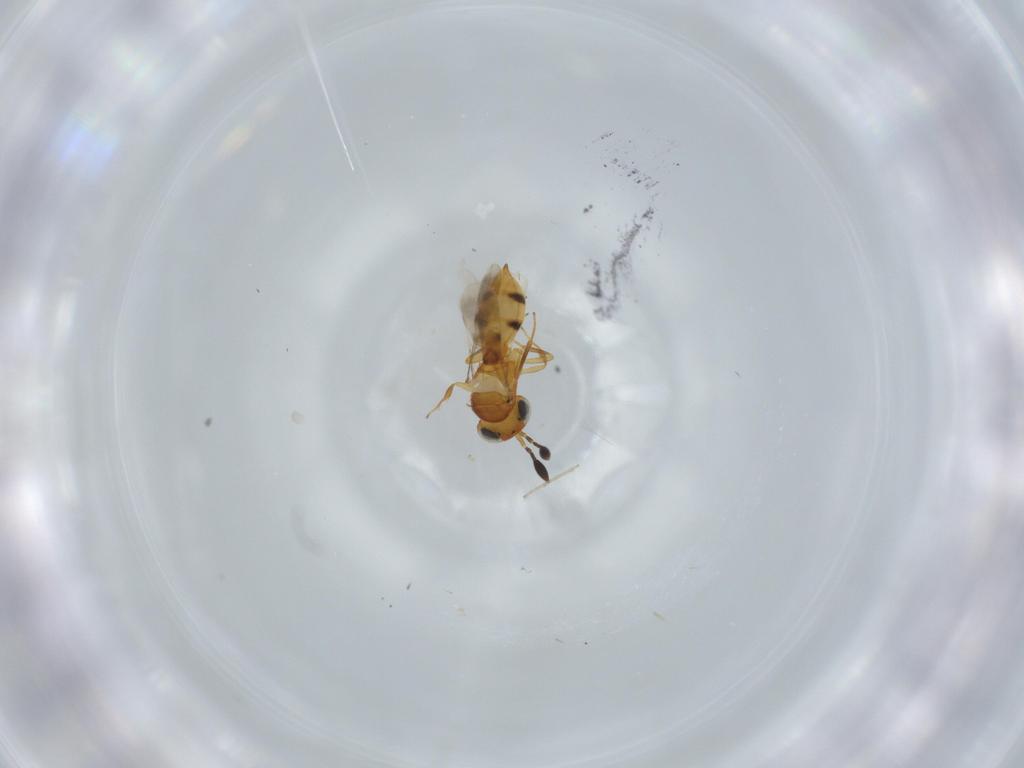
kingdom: Animalia
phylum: Arthropoda
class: Insecta
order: Hymenoptera
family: Scelionidae
